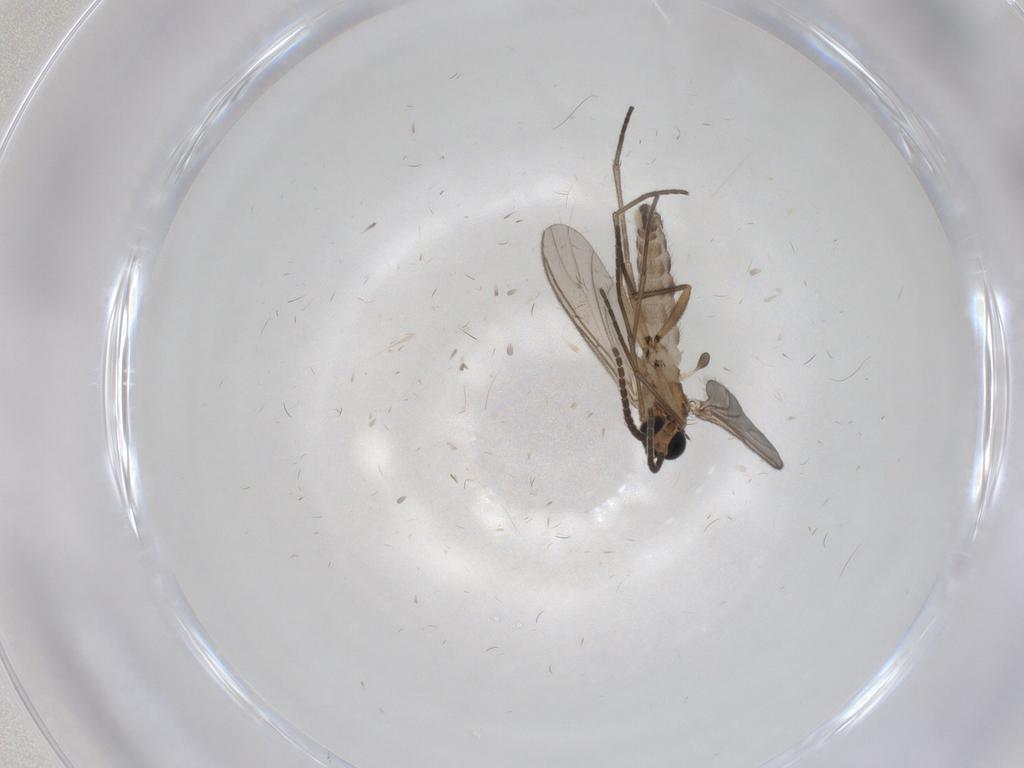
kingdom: Animalia
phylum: Arthropoda
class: Insecta
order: Diptera
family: Sciaridae
